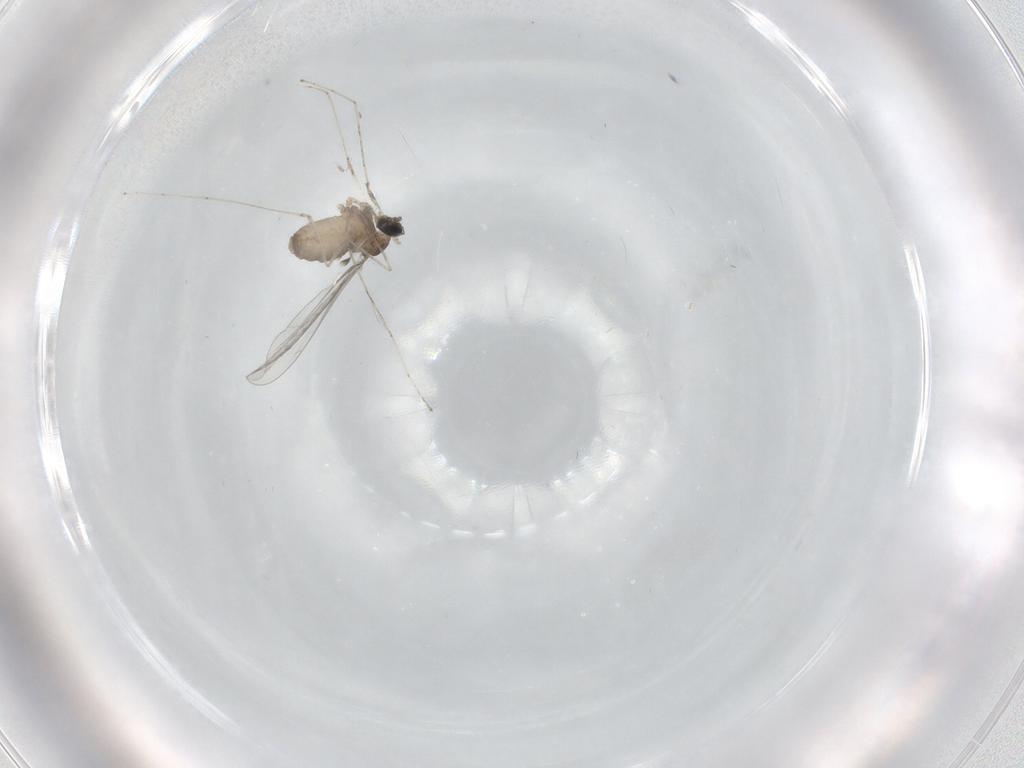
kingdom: Animalia
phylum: Arthropoda
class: Insecta
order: Diptera
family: Cecidomyiidae
